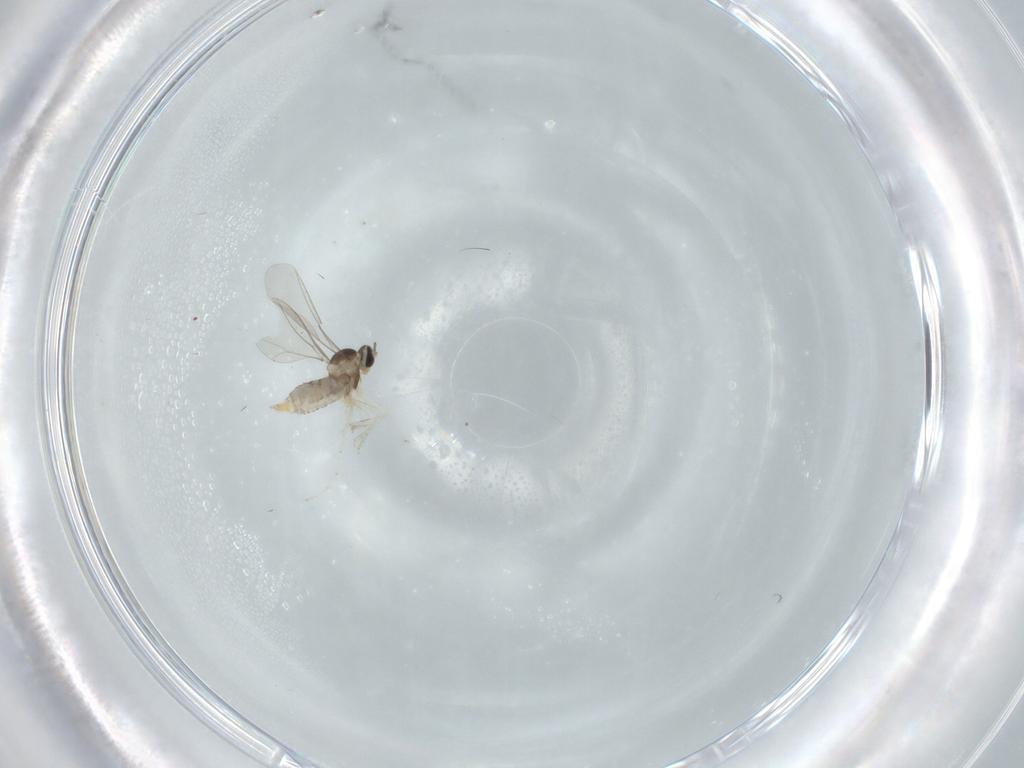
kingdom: Animalia
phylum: Arthropoda
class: Insecta
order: Diptera
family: Cecidomyiidae
